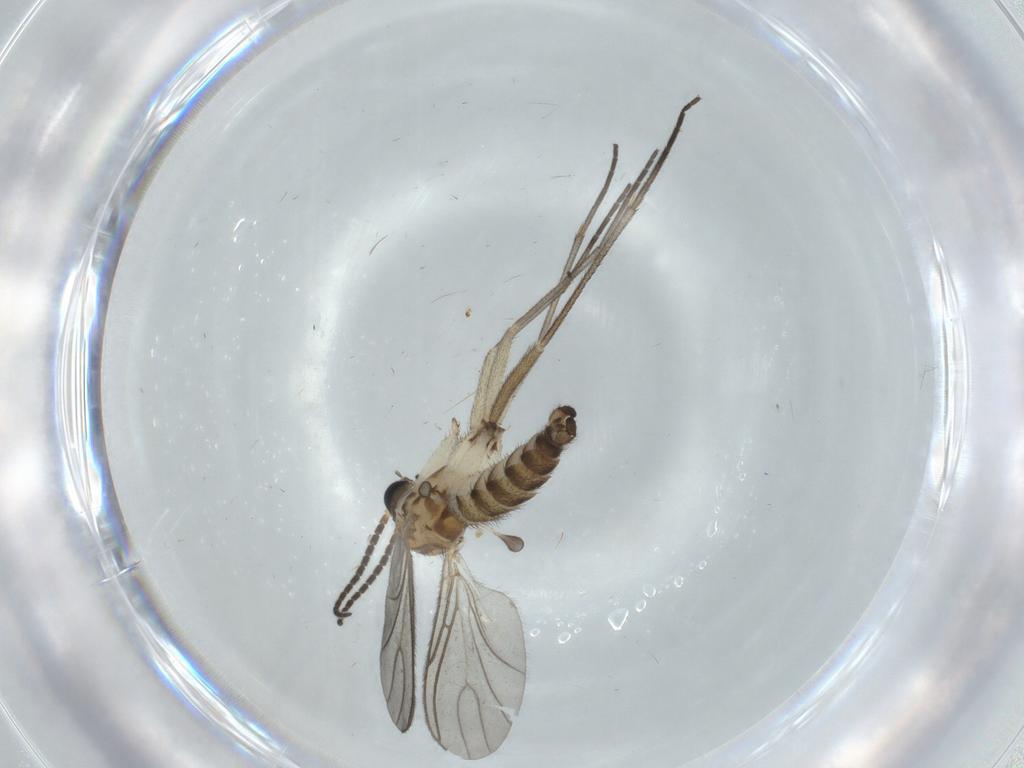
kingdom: Animalia
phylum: Arthropoda
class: Insecta
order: Diptera
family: Sciaridae
